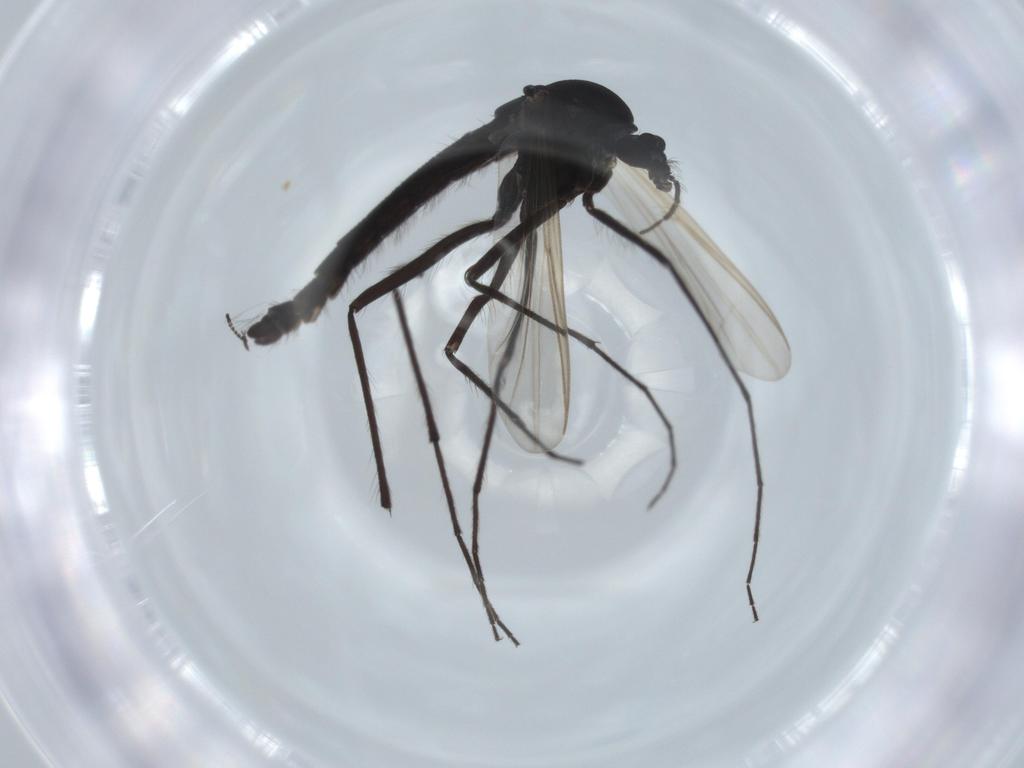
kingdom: Animalia
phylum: Arthropoda
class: Insecta
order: Diptera
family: Chironomidae
